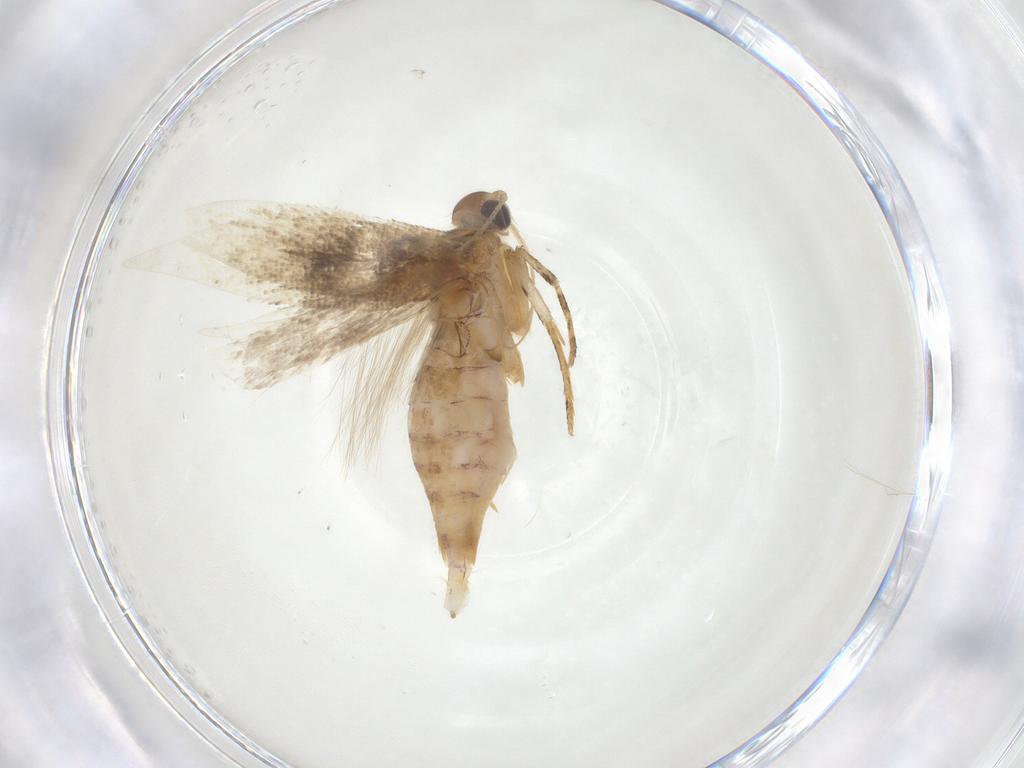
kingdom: Animalia
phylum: Arthropoda
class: Insecta
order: Lepidoptera
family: Gelechiidae
